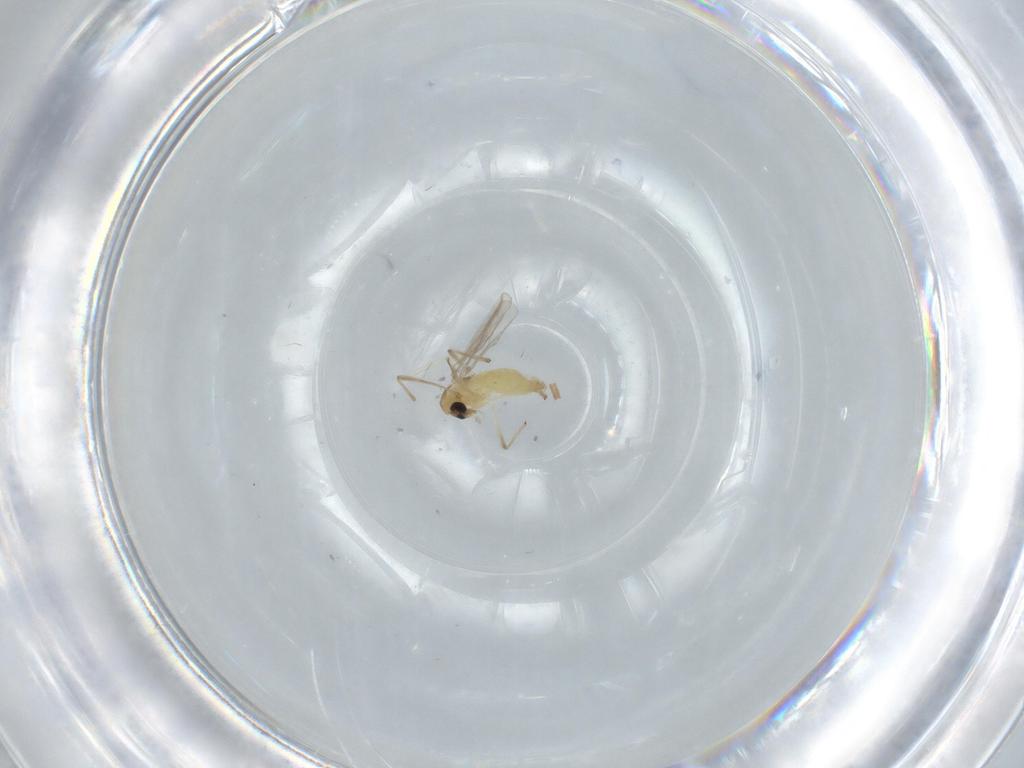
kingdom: Animalia
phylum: Arthropoda
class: Insecta
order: Diptera
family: Chironomidae
